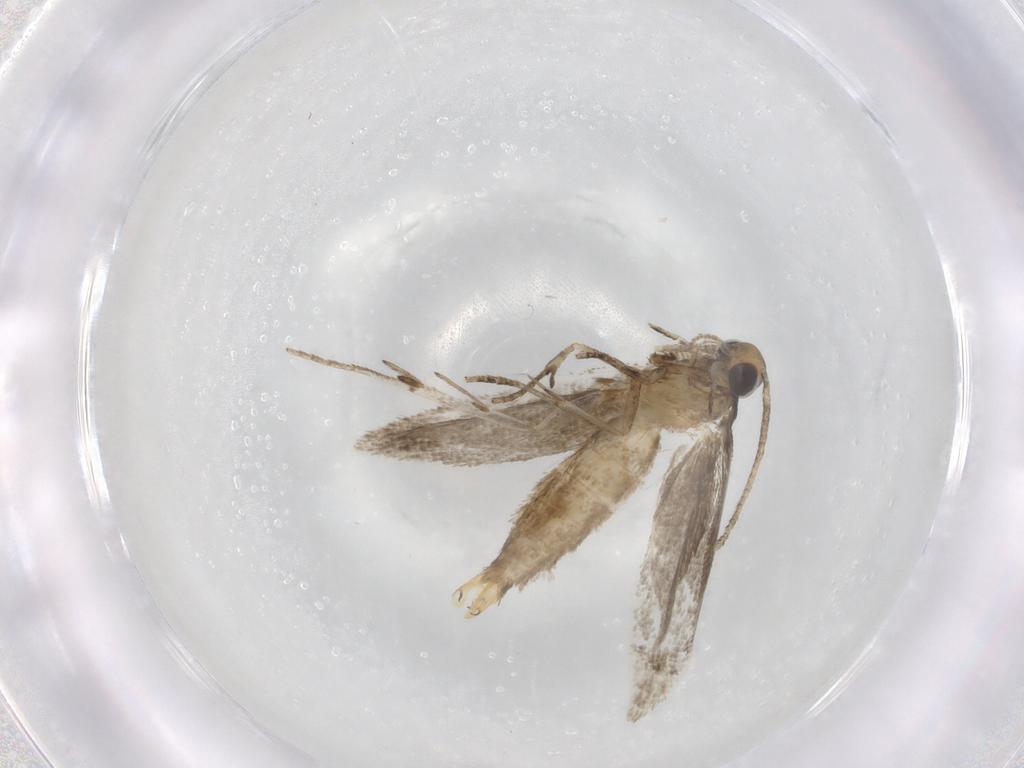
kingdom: Animalia
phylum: Arthropoda
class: Insecta
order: Lepidoptera
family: Gelechiidae
